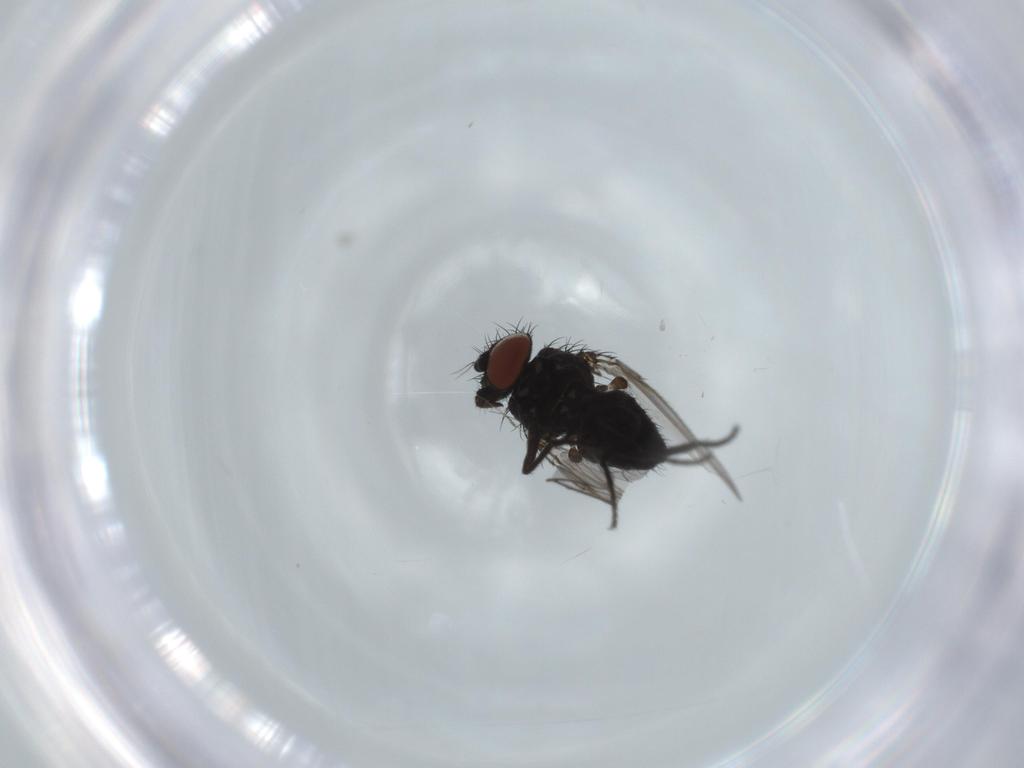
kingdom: Animalia
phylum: Arthropoda
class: Insecta
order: Diptera
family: Milichiidae
